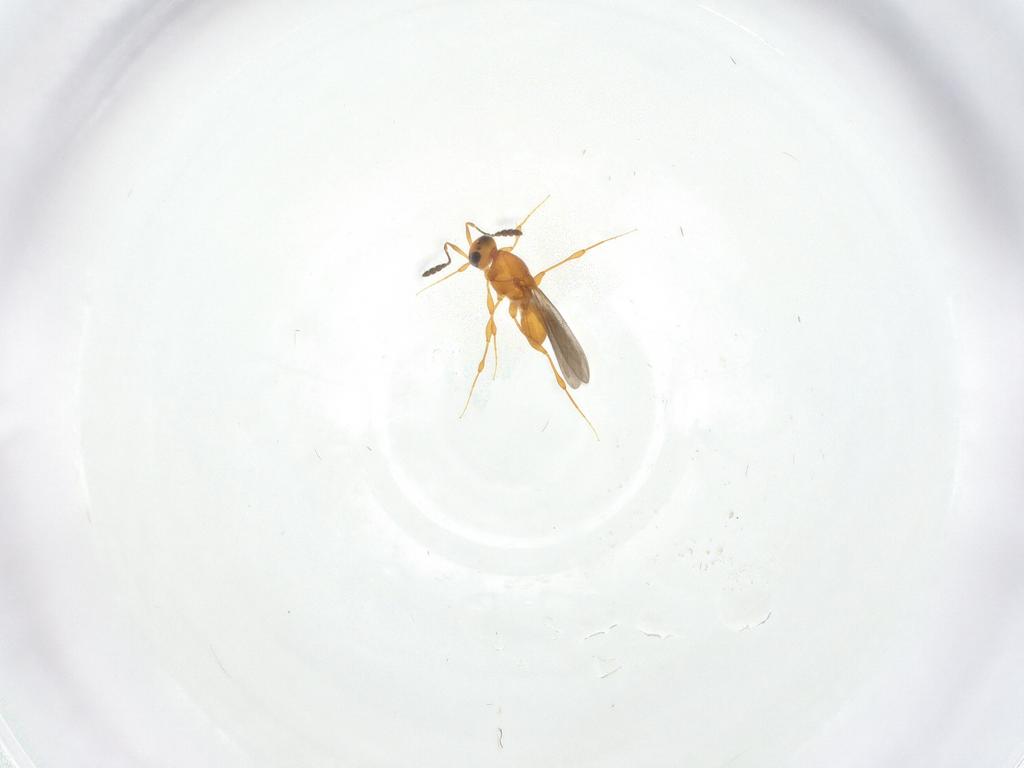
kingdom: Animalia
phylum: Arthropoda
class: Insecta
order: Hymenoptera
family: Platygastridae
